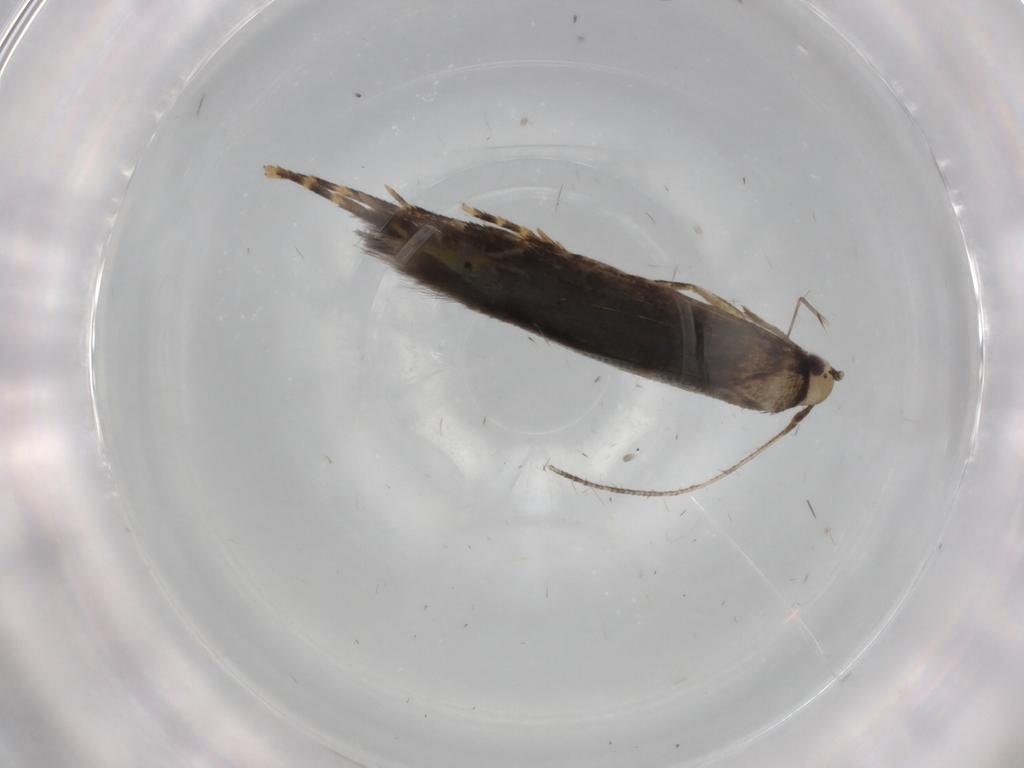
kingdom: Animalia
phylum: Arthropoda
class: Insecta
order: Lepidoptera
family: Cosmopterigidae
